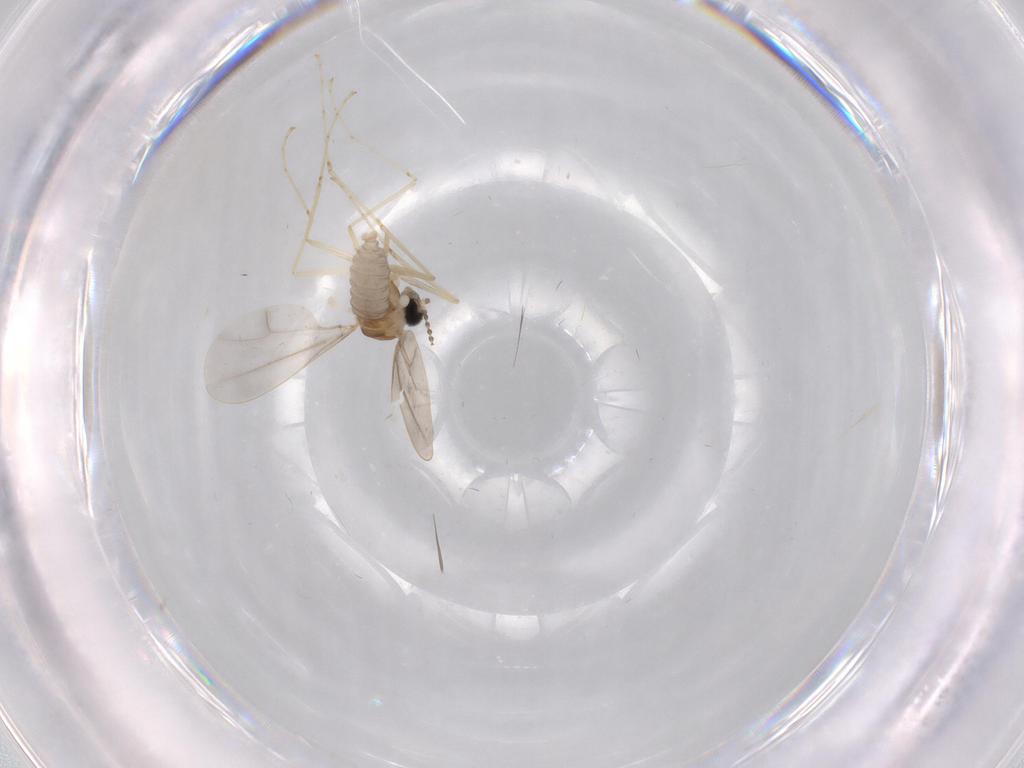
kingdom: Animalia
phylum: Arthropoda
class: Insecta
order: Diptera
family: Cecidomyiidae
